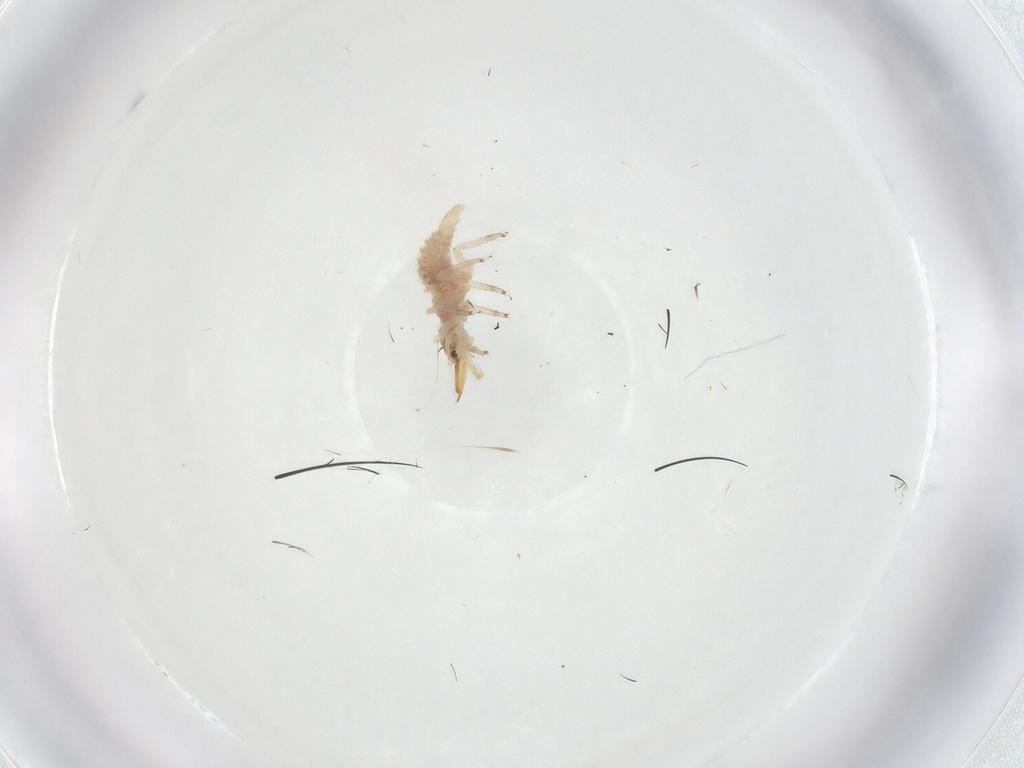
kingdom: Animalia
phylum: Arthropoda
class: Insecta
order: Neuroptera
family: Chrysopidae
